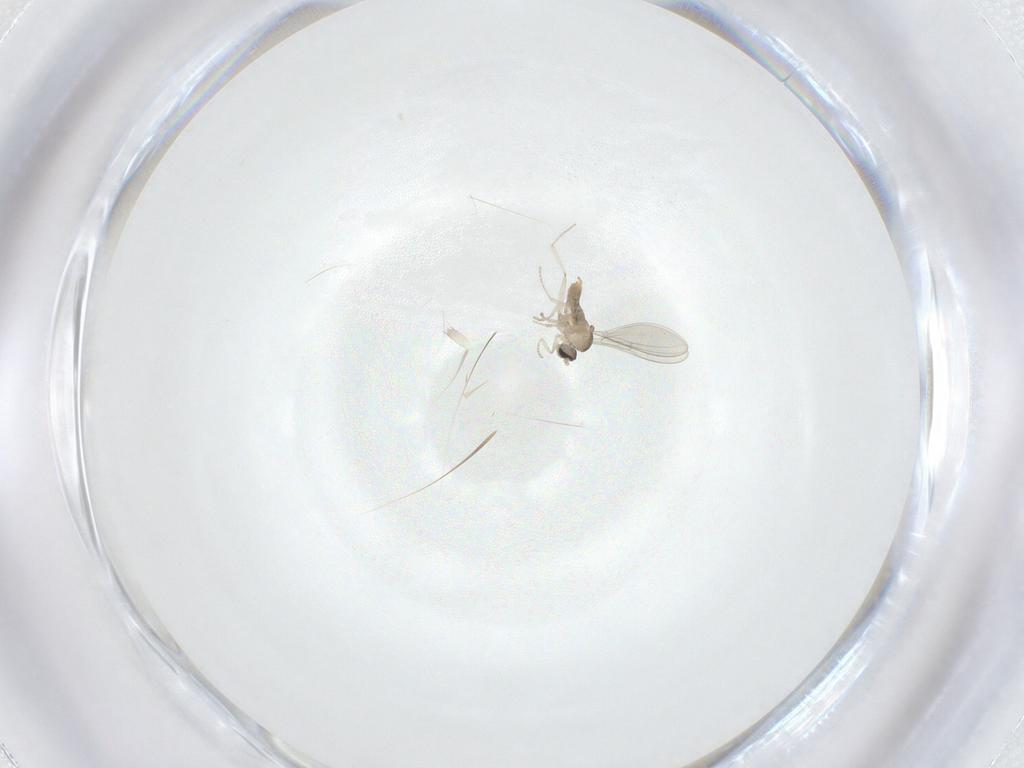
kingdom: Animalia
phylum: Arthropoda
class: Insecta
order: Diptera
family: Cecidomyiidae
